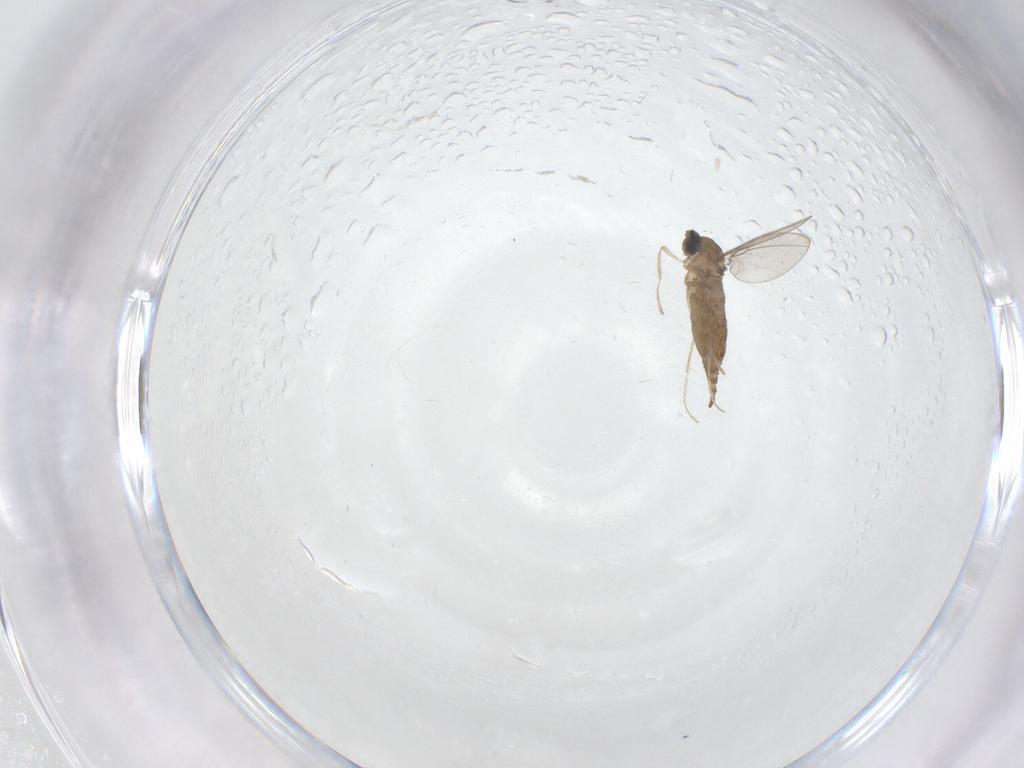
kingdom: Animalia
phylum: Arthropoda
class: Insecta
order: Diptera
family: Cecidomyiidae
